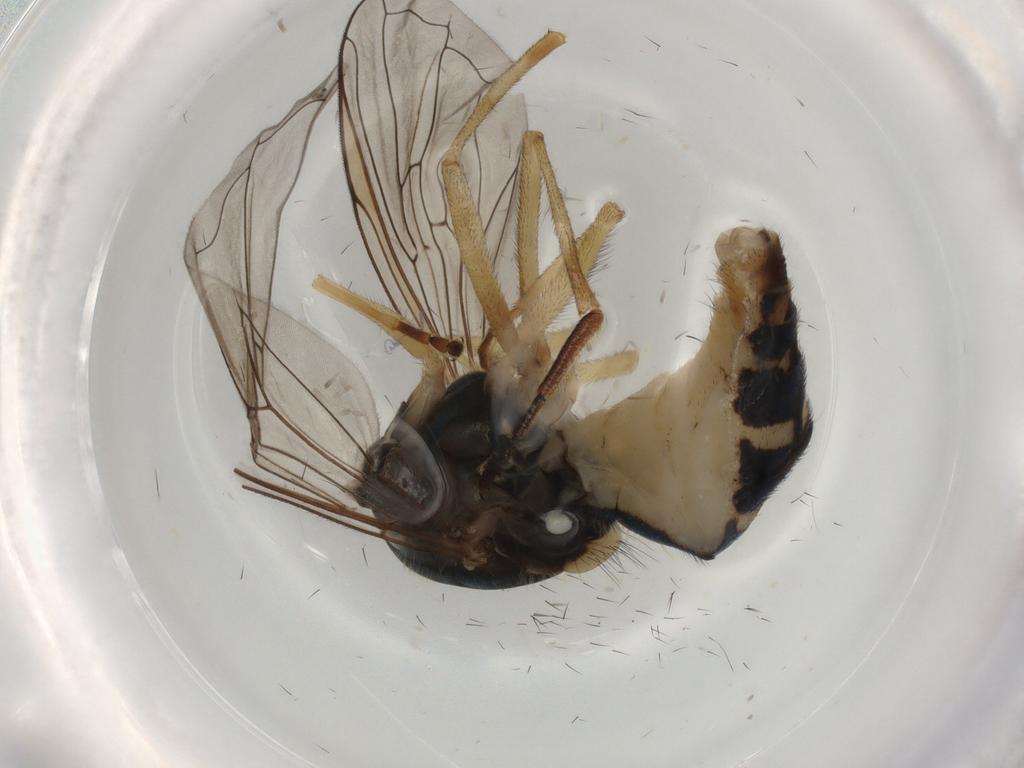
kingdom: Animalia
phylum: Arthropoda
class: Insecta
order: Diptera
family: Syrphidae
